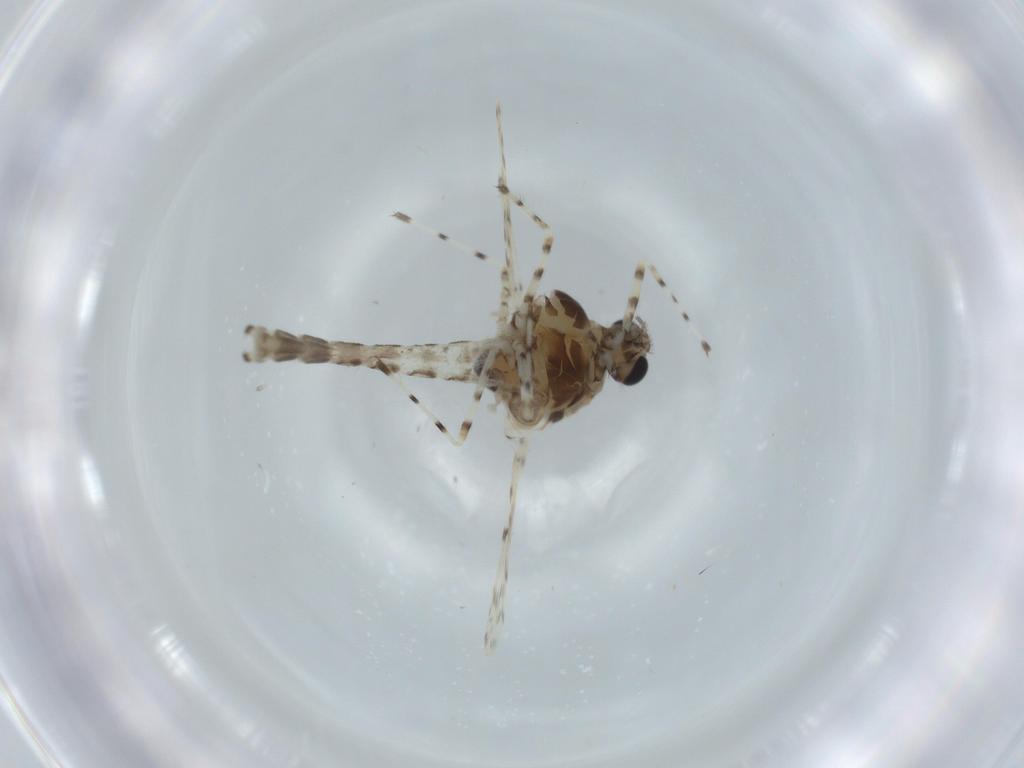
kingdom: Animalia
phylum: Arthropoda
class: Insecta
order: Diptera
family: Chironomidae
